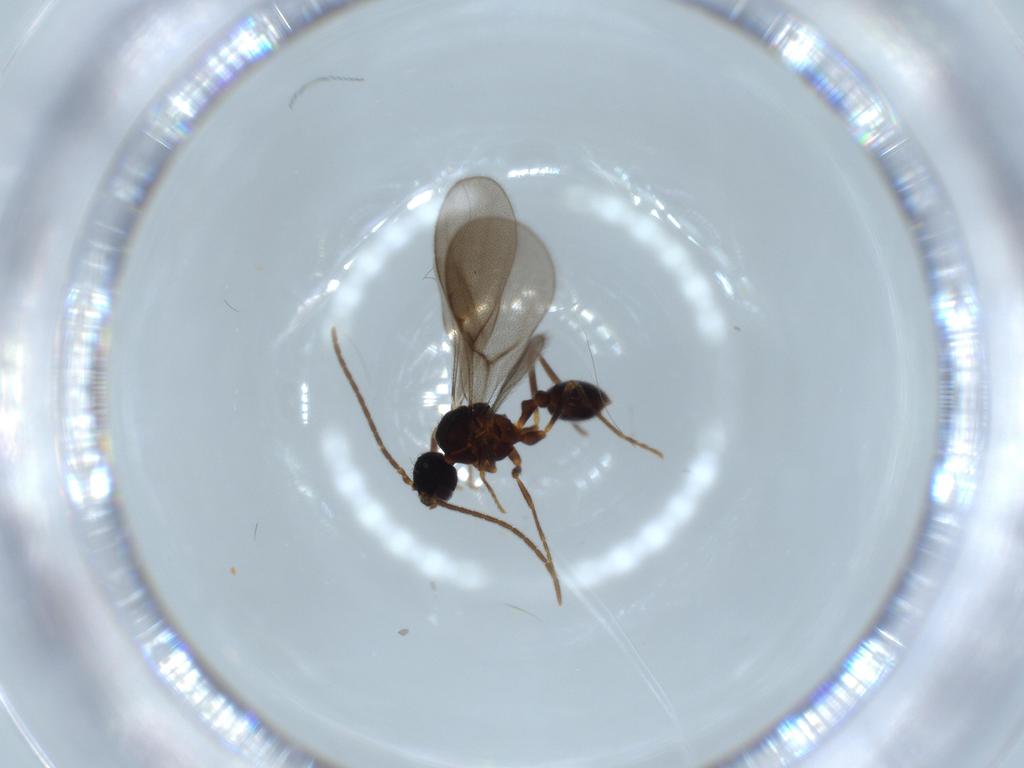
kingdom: Animalia
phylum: Arthropoda
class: Insecta
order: Hymenoptera
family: Formicidae
